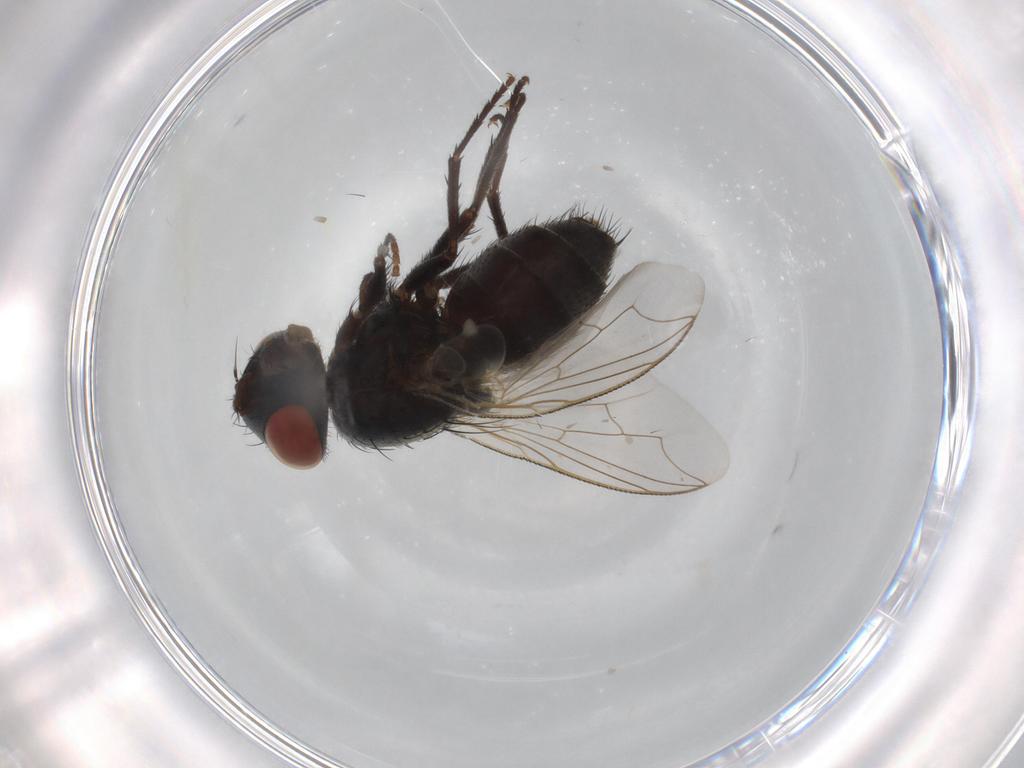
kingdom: Animalia
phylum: Arthropoda
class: Insecta
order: Diptera
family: Sarcophagidae
